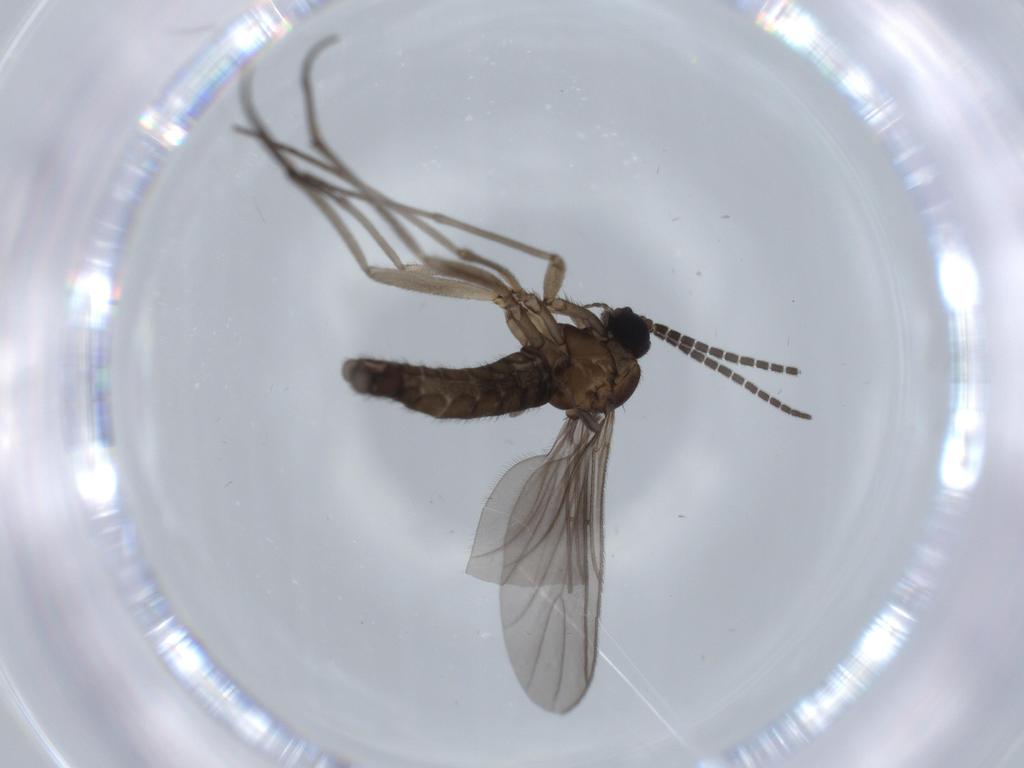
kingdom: Animalia
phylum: Arthropoda
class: Insecta
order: Diptera
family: Sciaridae
